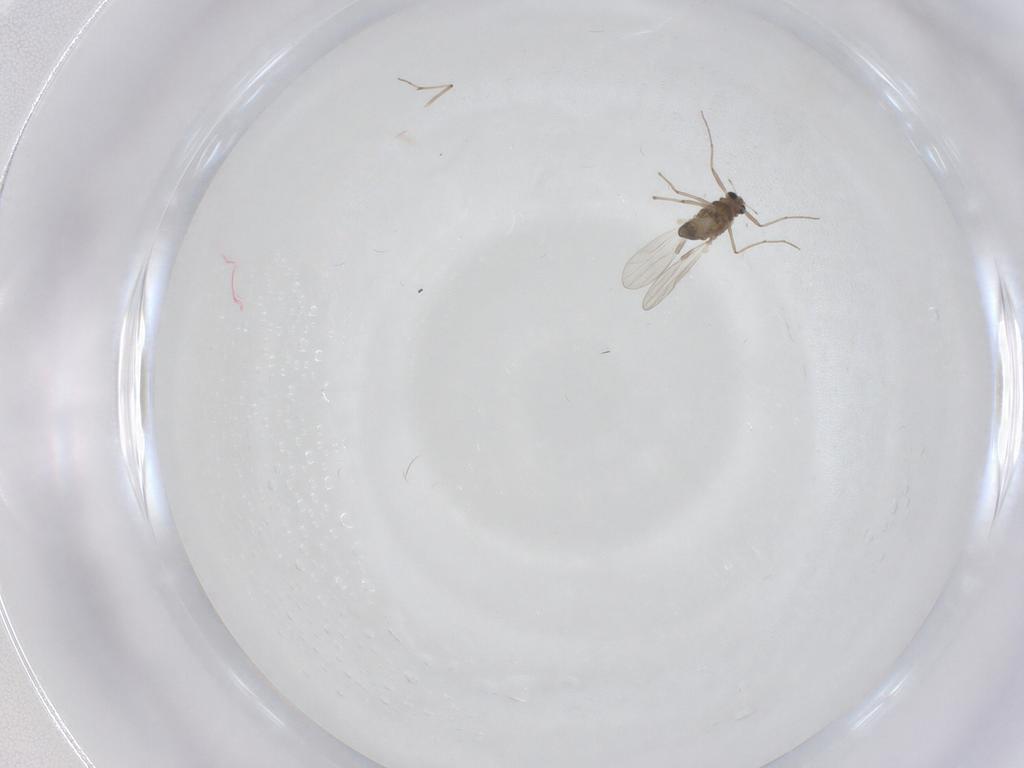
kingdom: Animalia
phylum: Arthropoda
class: Insecta
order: Diptera
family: Chironomidae
